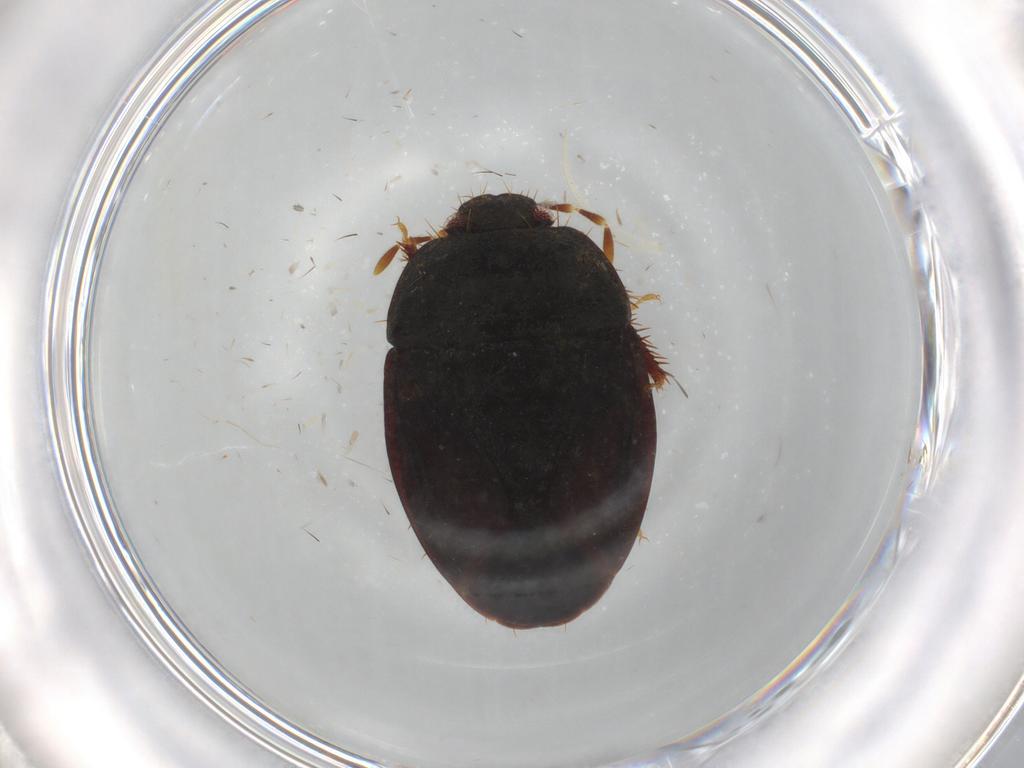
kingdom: Animalia
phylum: Arthropoda
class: Insecta
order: Hemiptera
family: Cydnidae
